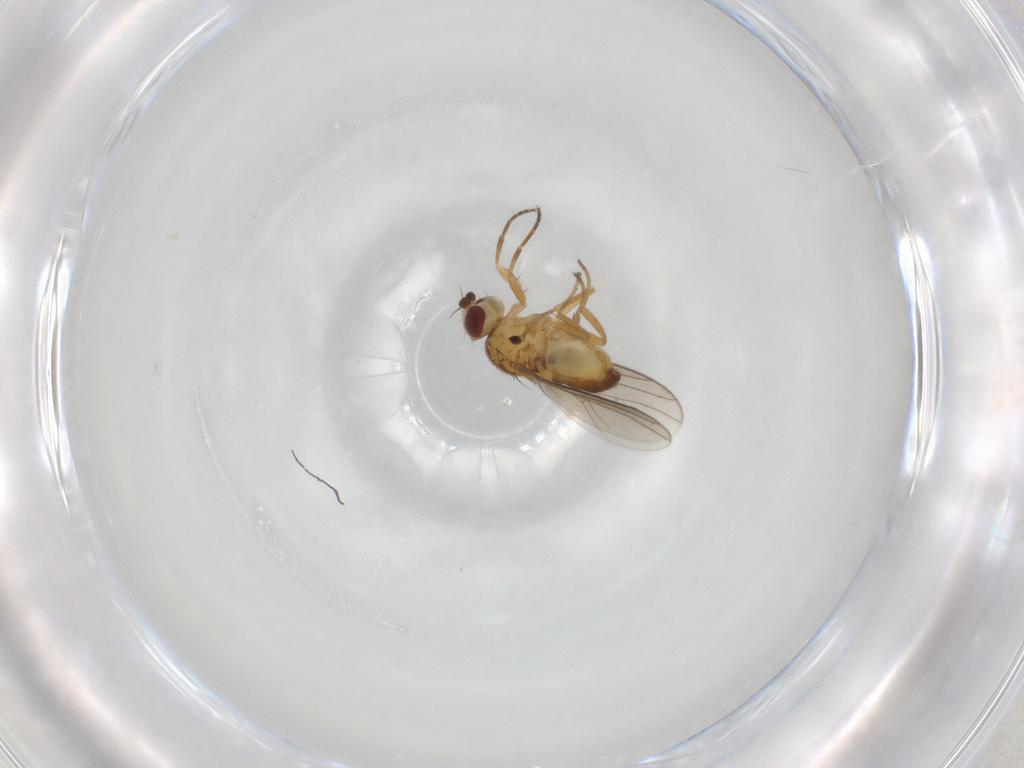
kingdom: Animalia
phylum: Arthropoda
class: Insecta
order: Diptera
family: Chloropidae
